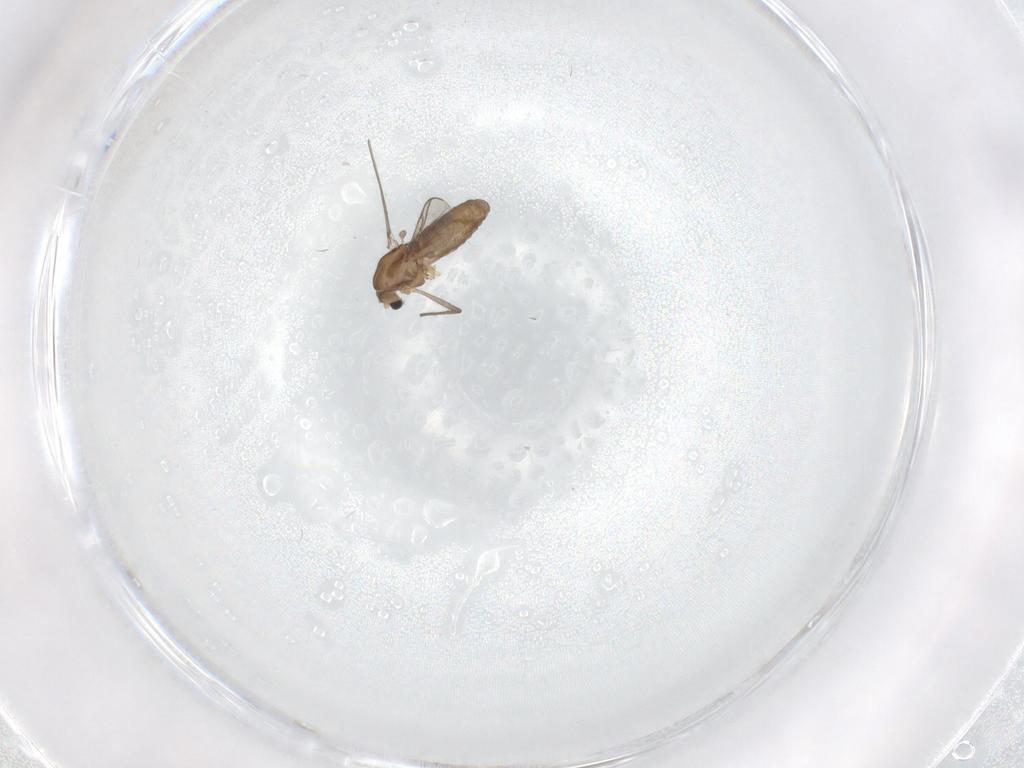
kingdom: Animalia
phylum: Arthropoda
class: Insecta
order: Diptera
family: Chironomidae
